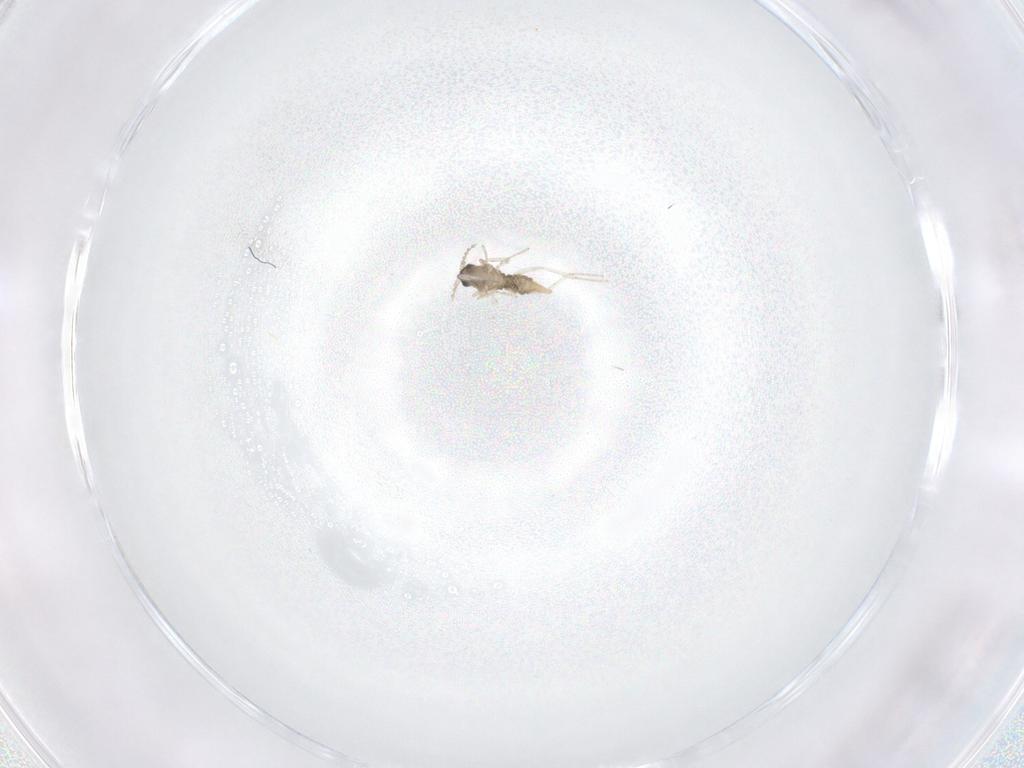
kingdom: Animalia
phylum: Arthropoda
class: Insecta
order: Diptera
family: Cecidomyiidae
